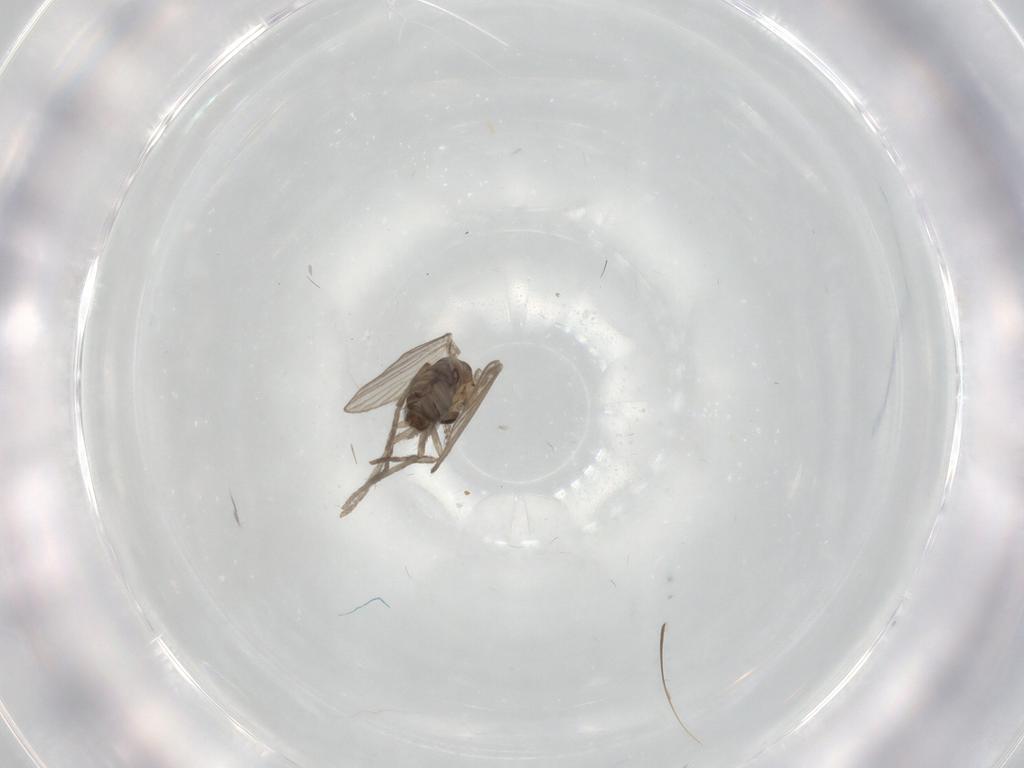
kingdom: Animalia
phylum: Arthropoda
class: Insecta
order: Diptera
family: Psychodidae
